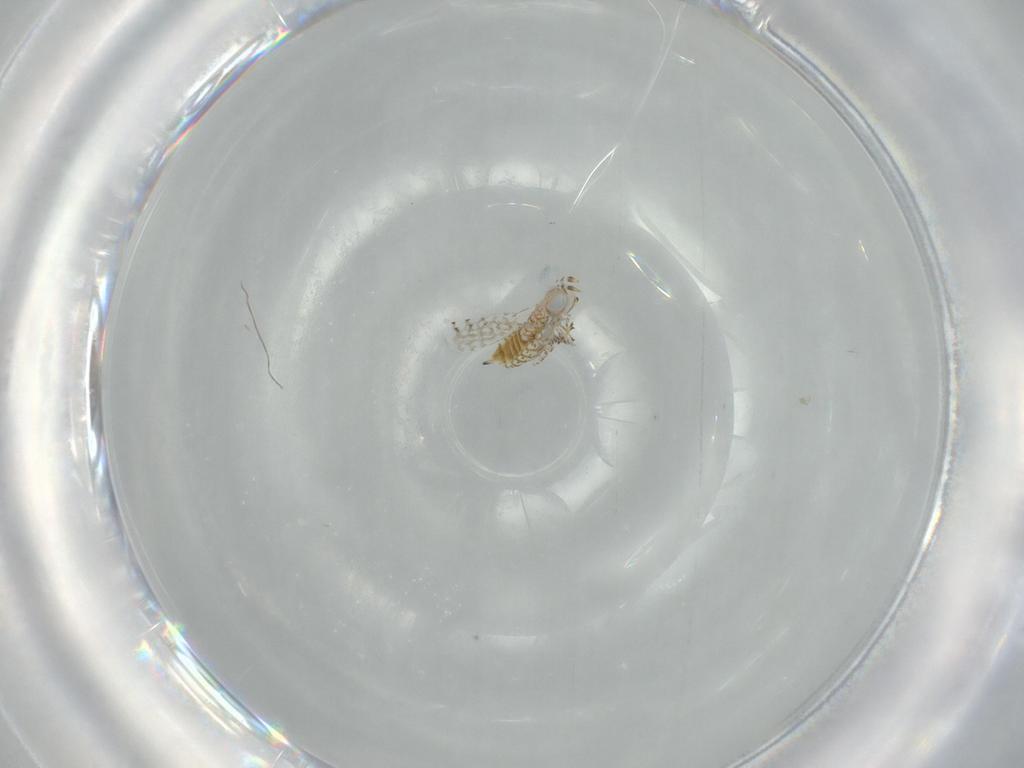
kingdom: Animalia
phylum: Arthropoda
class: Insecta
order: Hymenoptera
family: Aphelinidae
